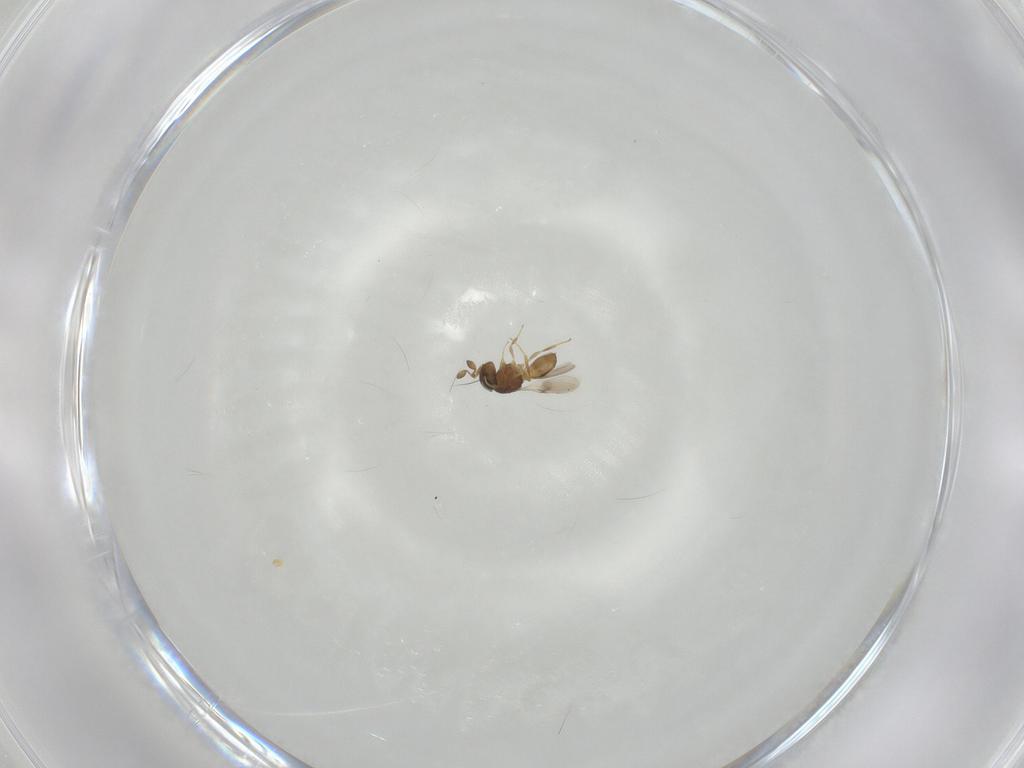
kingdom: Animalia
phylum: Arthropoda
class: Insecta
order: Hymenoptera
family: Scelionidae
